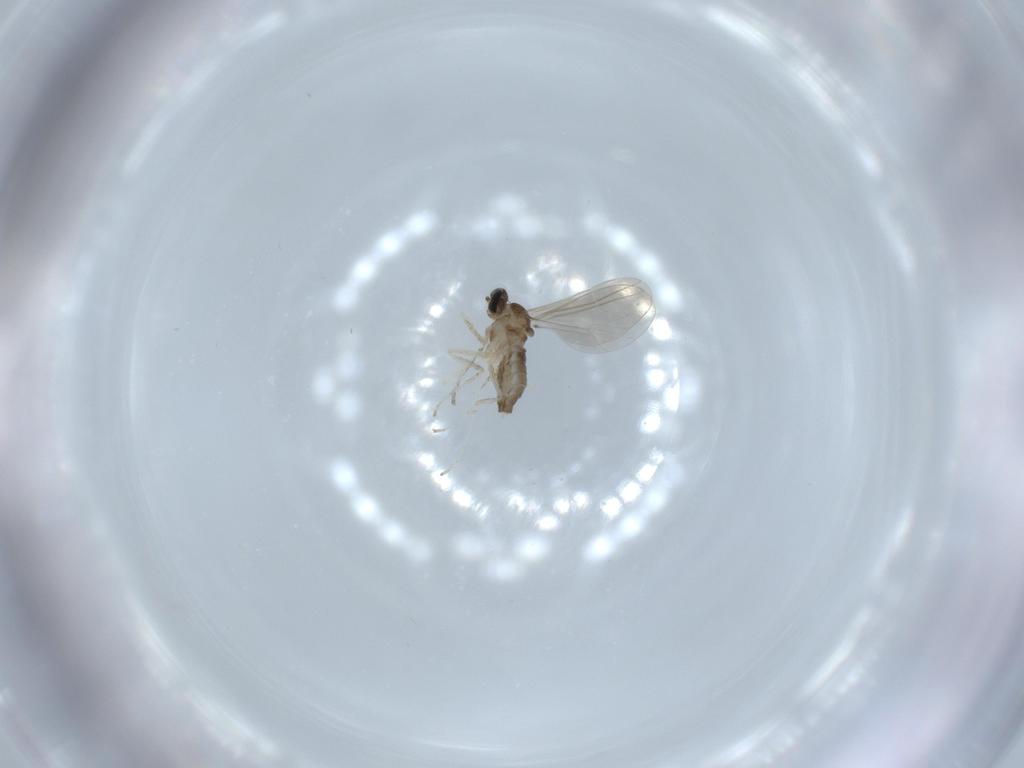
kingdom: Animalia
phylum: Arthropoda
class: Insecta
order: Diptera
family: Cecidomyiidae
